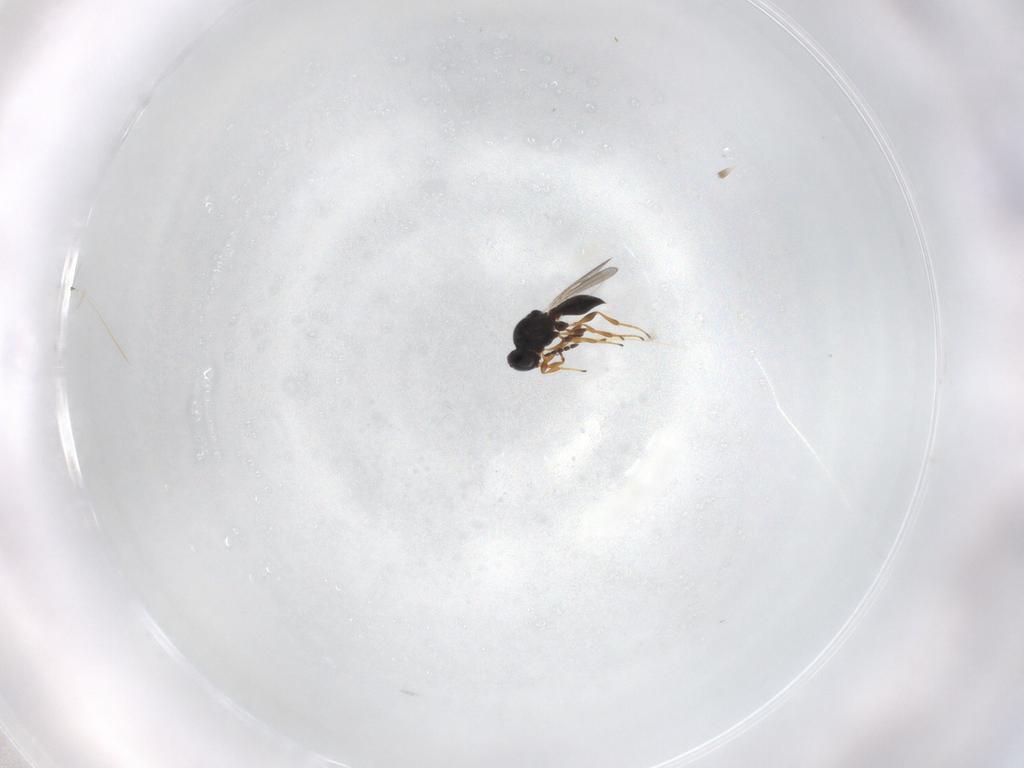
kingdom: Animalia
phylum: Arthropoda
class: Insecta
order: Hymenoptera
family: Platygastridae
